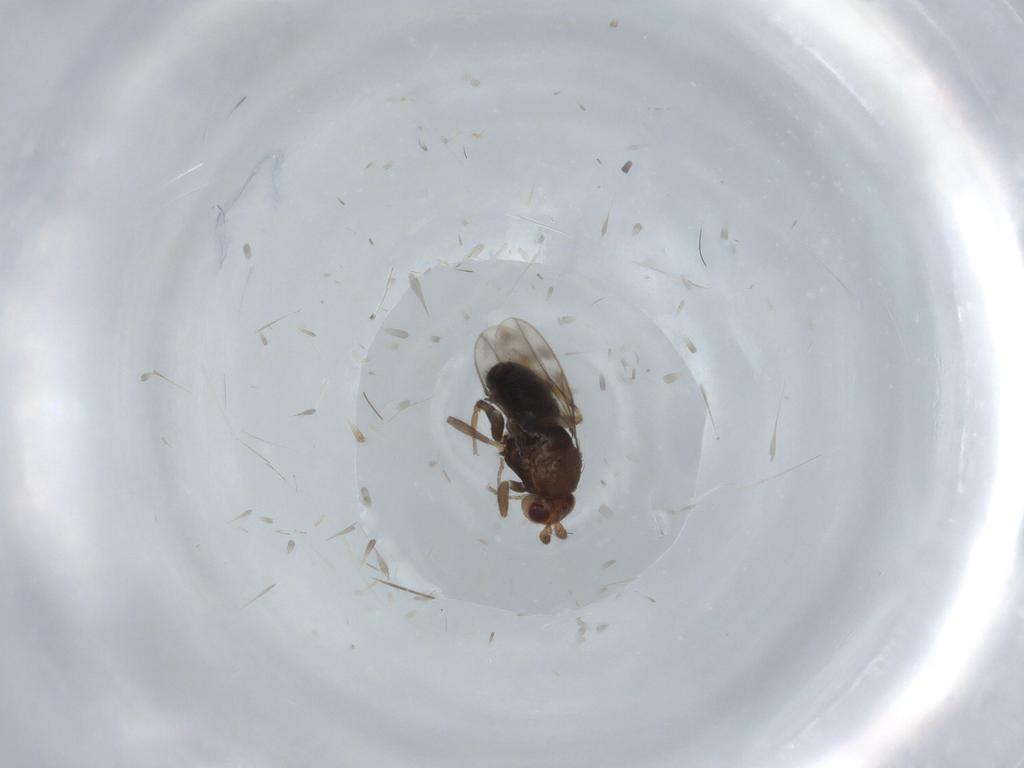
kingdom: Animalia
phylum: Arthropoda
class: Insecta
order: Diptera
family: Sphaeroceridae
